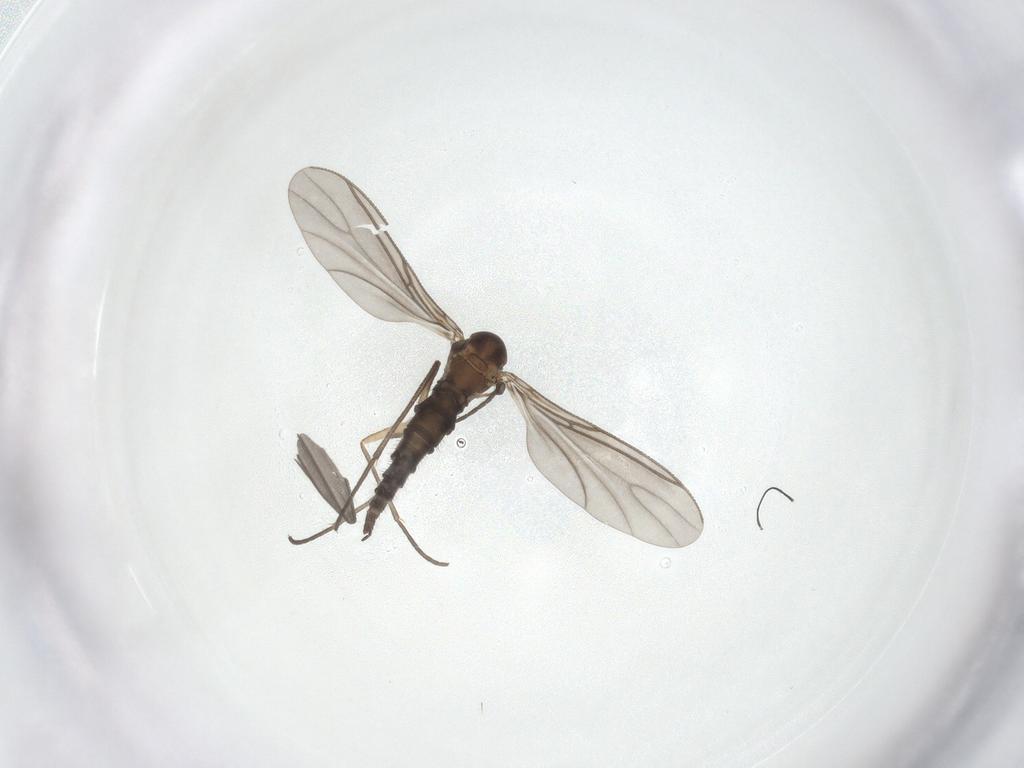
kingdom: Animalia
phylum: Arthropoda
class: Insecta
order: Diptera
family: Sciaridae
